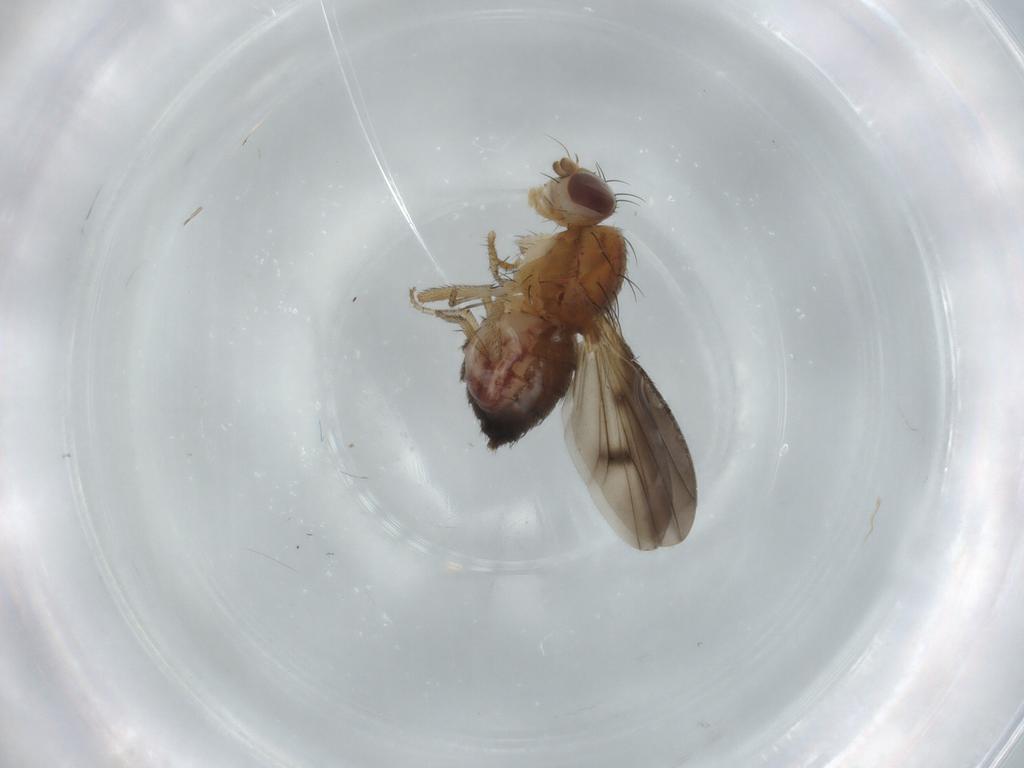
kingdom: Animalia
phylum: Arthropoda
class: Insecta
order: Diptera
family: Heleomyzidae
